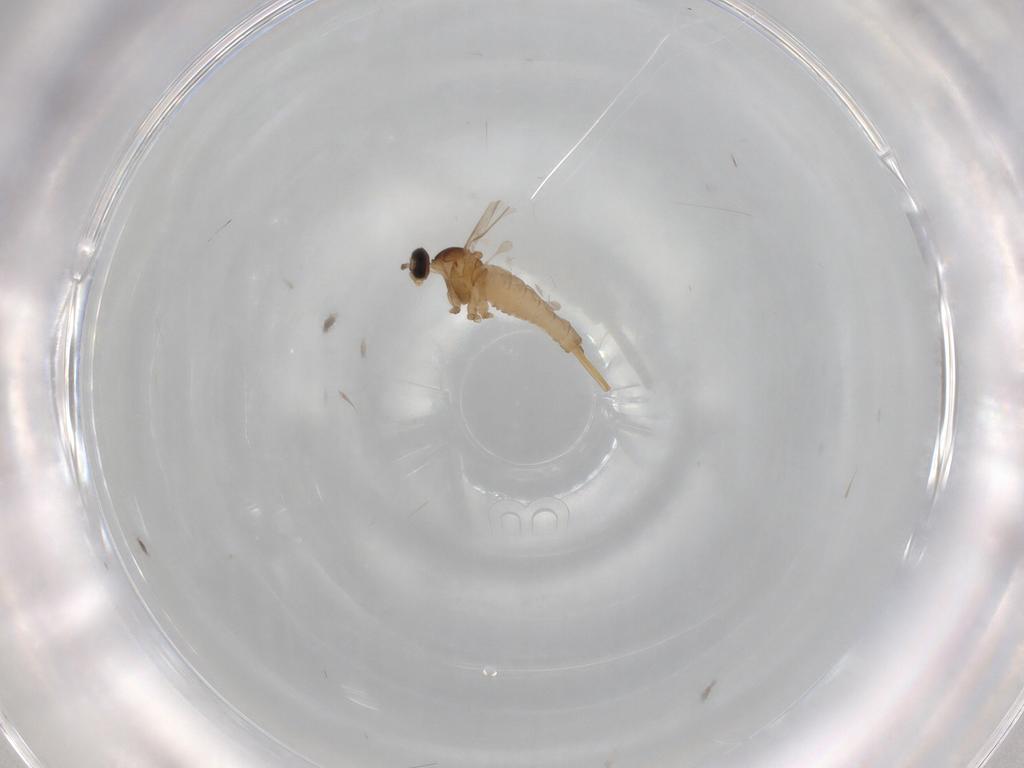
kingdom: Animalia
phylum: Arthropoda
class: Insecta
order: Diptera
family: Cecidomyiidae
